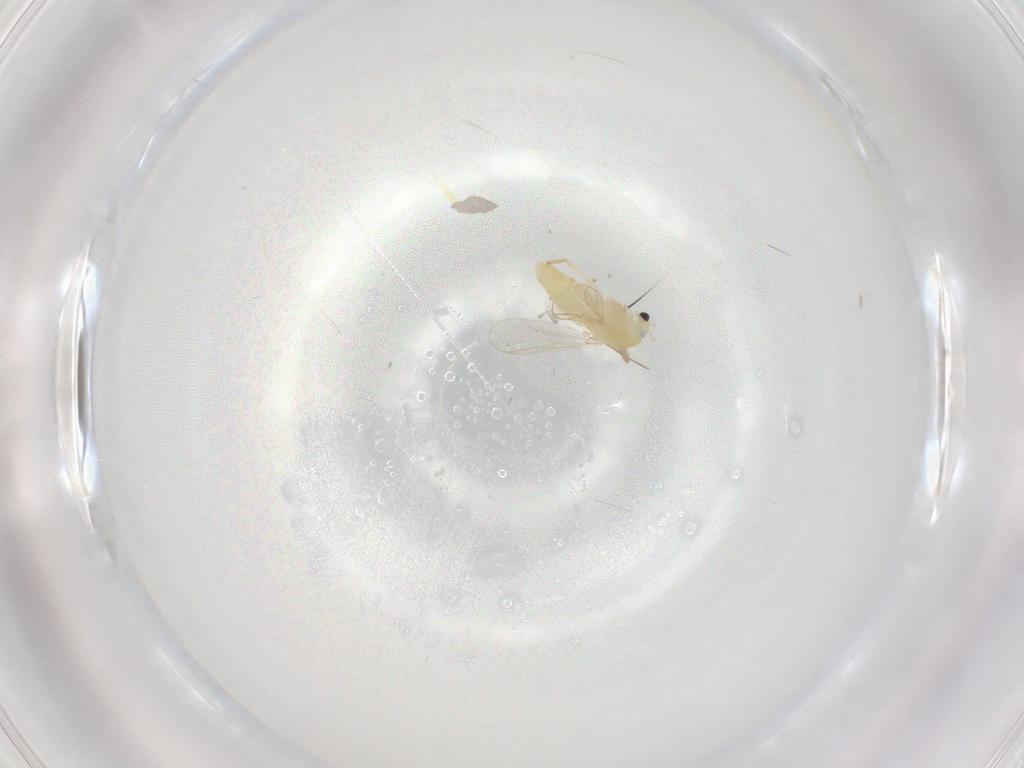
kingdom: Animalia
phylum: Arthropoda
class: Insecta
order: Diptera
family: Chironomidae
